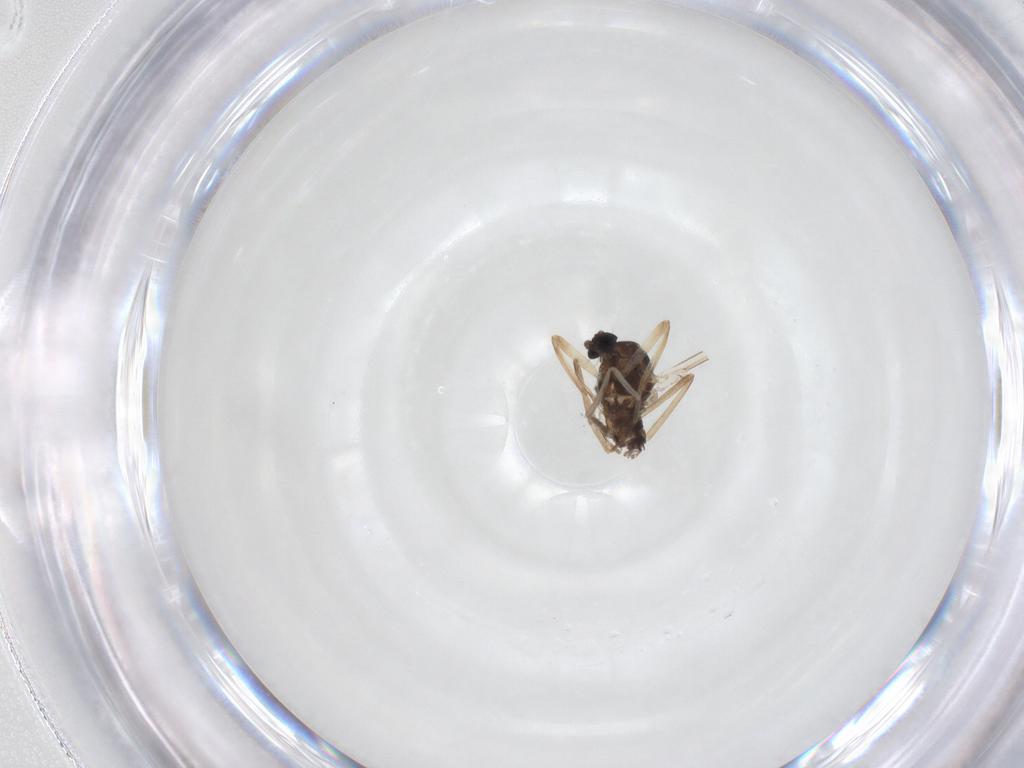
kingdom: Animalia
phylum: Arthropoda
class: Insecta
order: Diptera
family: Cecidomyiidae
